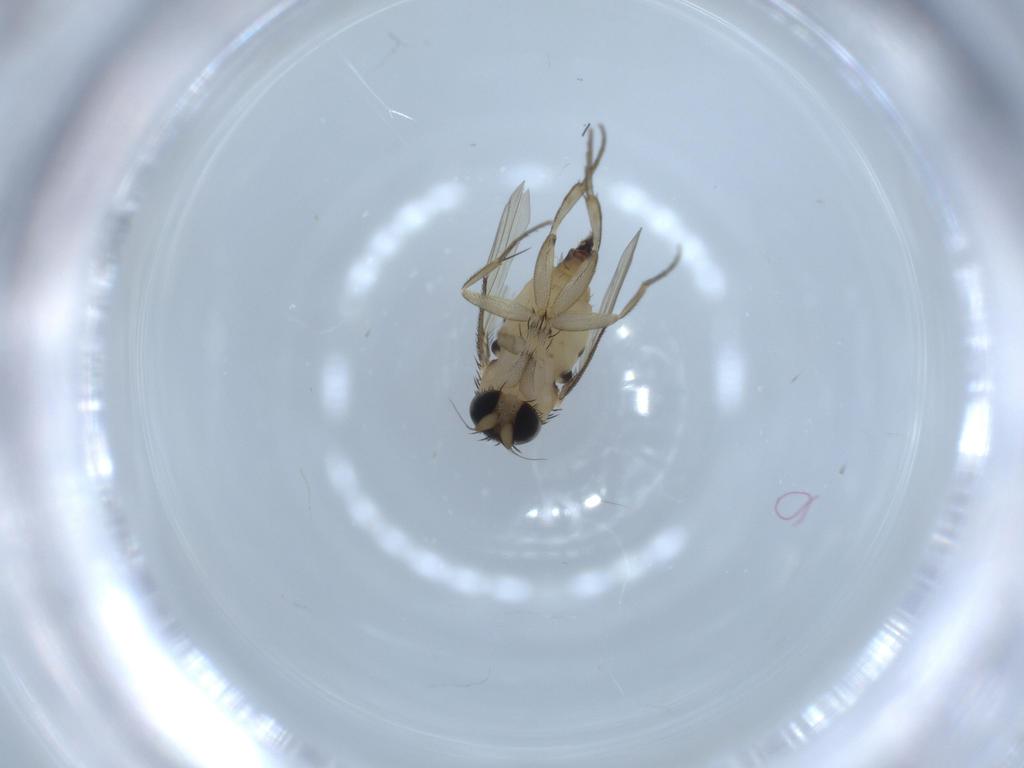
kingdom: Animalia
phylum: Arthropoda
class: Insecta
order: Diptera
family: Phoridae
